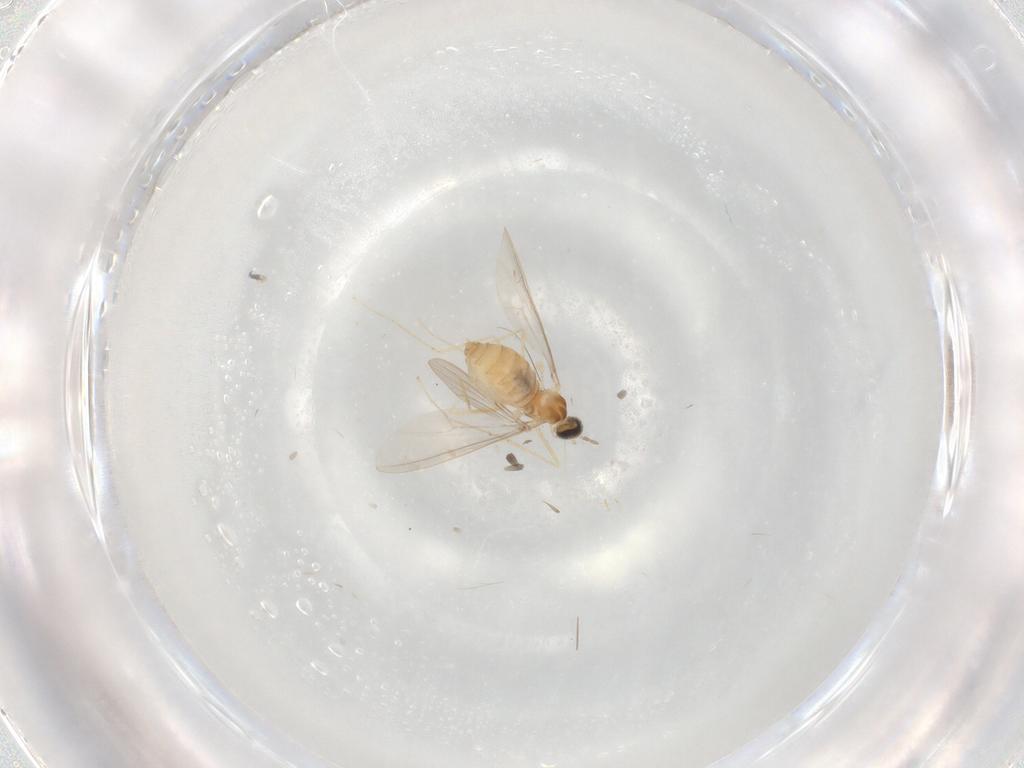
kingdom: Animalia
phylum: Arthropoda
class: Insecta
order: Diptera
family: Cecidomyiidae
